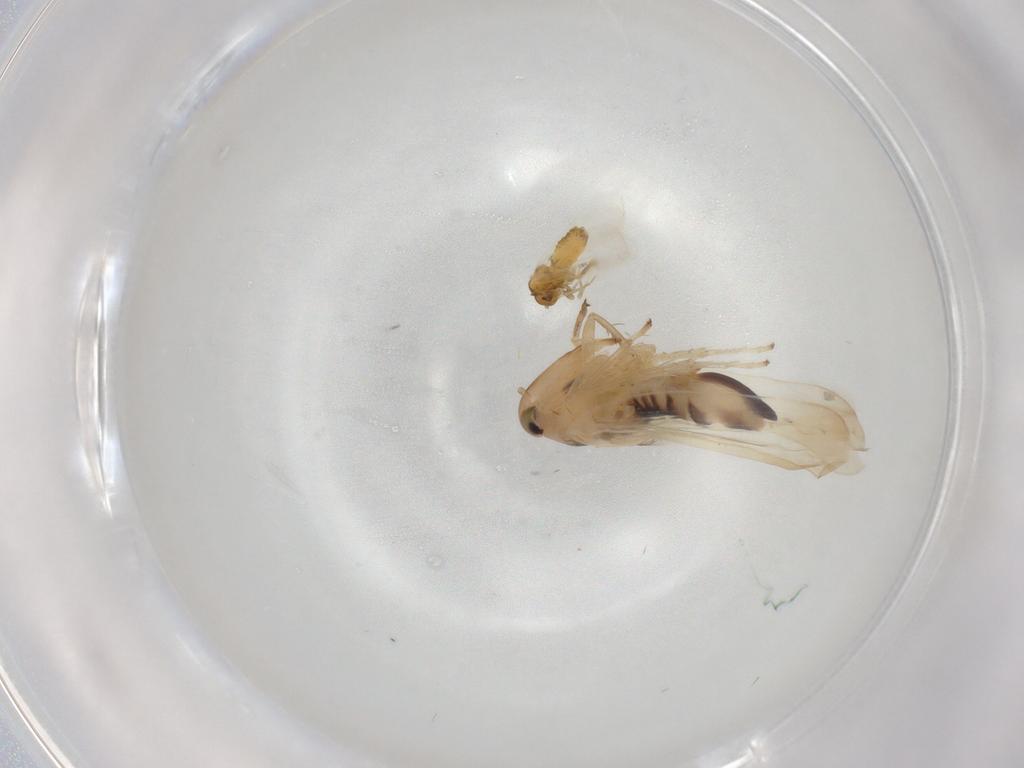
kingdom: Animalia
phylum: Arthropoda
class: Insecta
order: Hemiptera
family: Aleyrodidae
